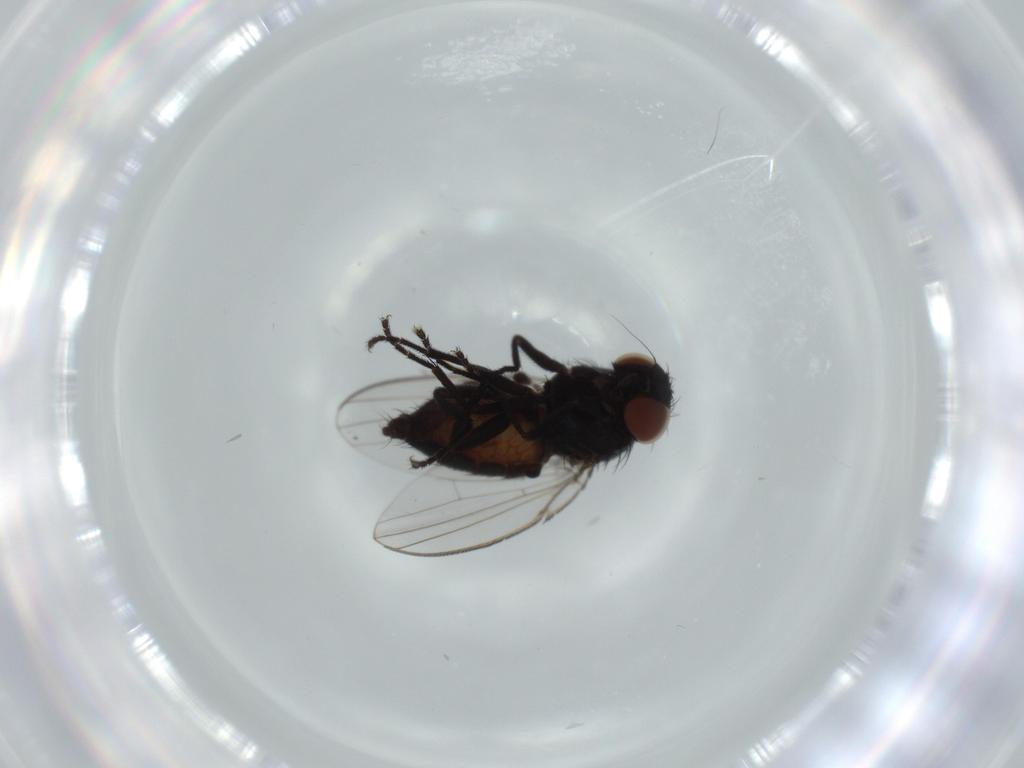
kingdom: Animalia
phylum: Arthropoda
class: Insecta
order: Diptera
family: Milichiidae
